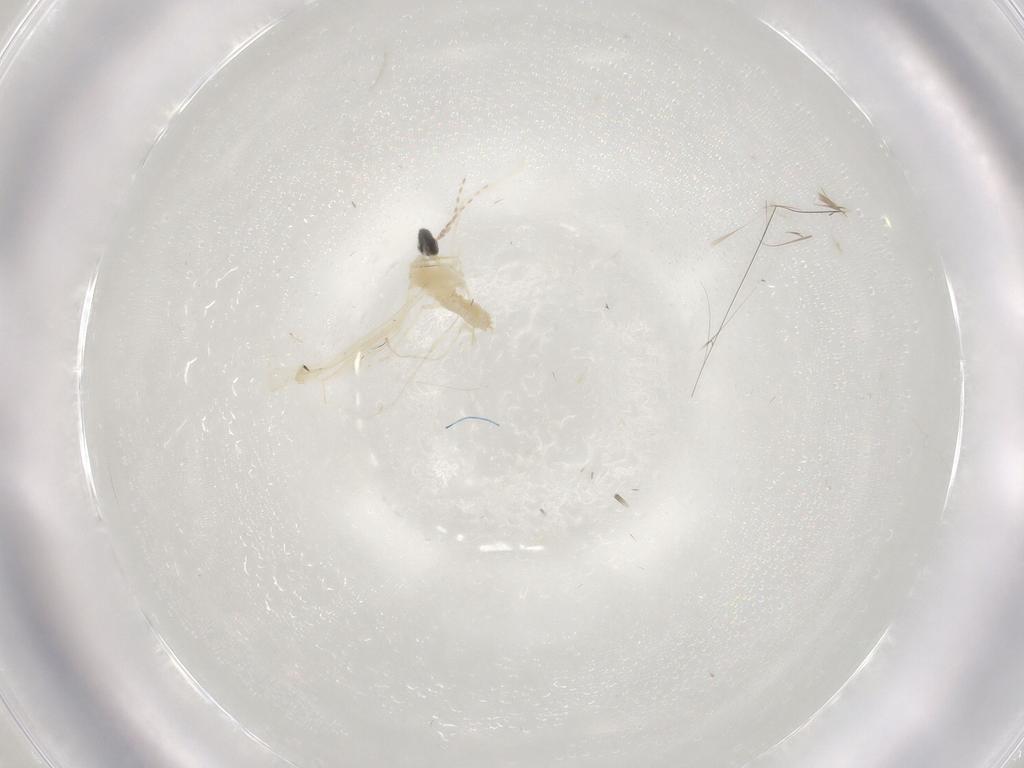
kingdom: Animalia
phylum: Arthropoda
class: Insecta
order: Diptera
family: Cecidomyiidae
